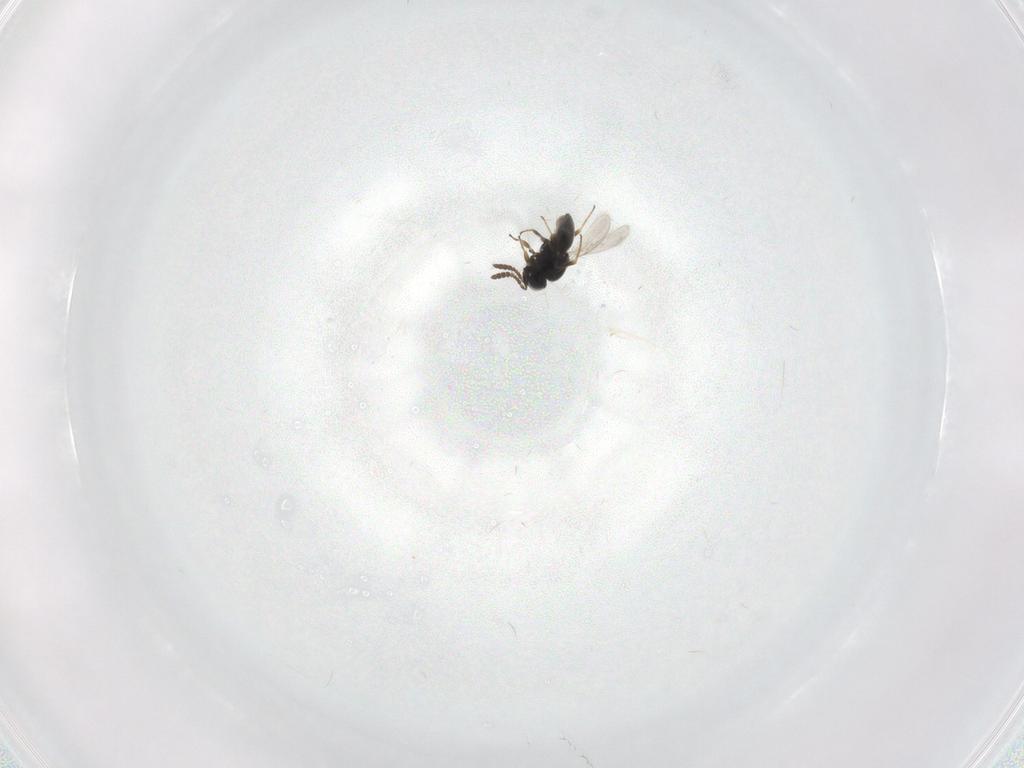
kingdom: Animalia
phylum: Arthropoda
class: Insecta
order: Hymenoptera
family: Scelionidae
